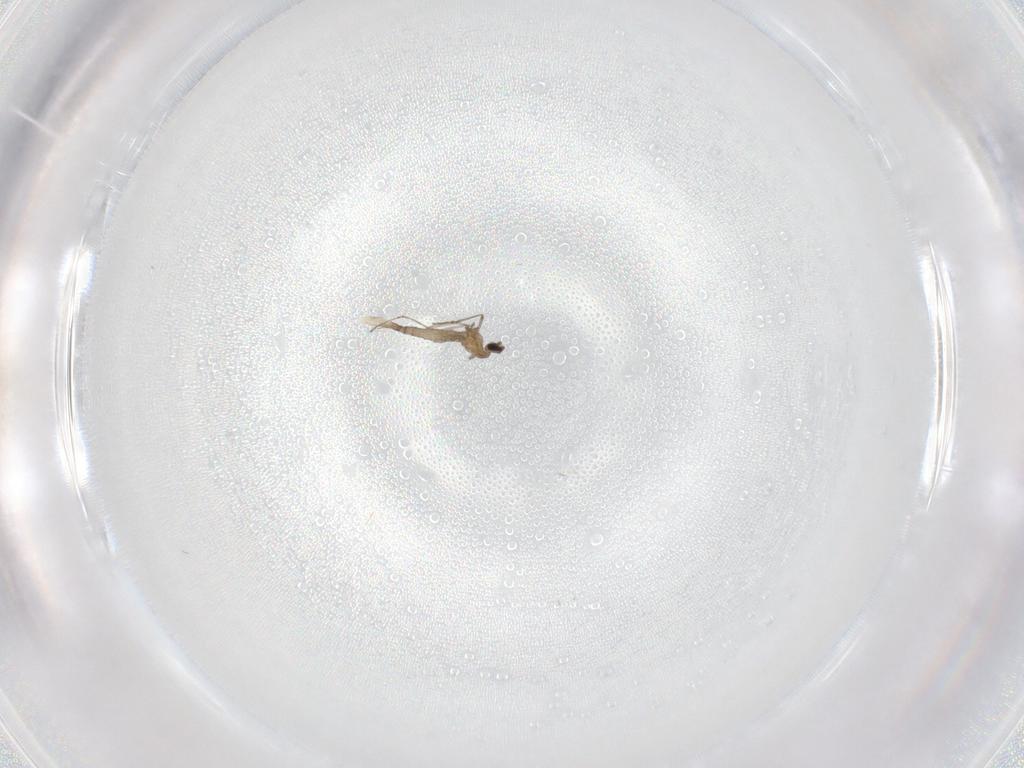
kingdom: Animalia
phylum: Arthropoda
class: Insecta
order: Diptera
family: Cecidomyiidae
